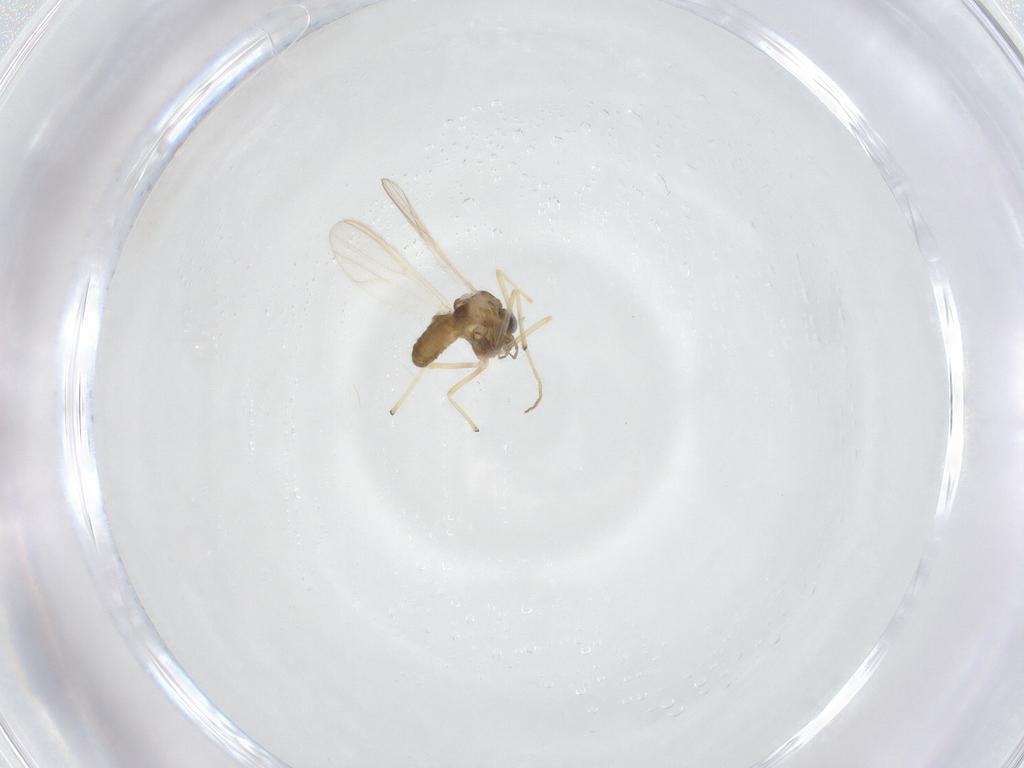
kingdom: Animalia
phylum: Arthropoda
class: Insecta
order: Diptera
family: Chironomidae
